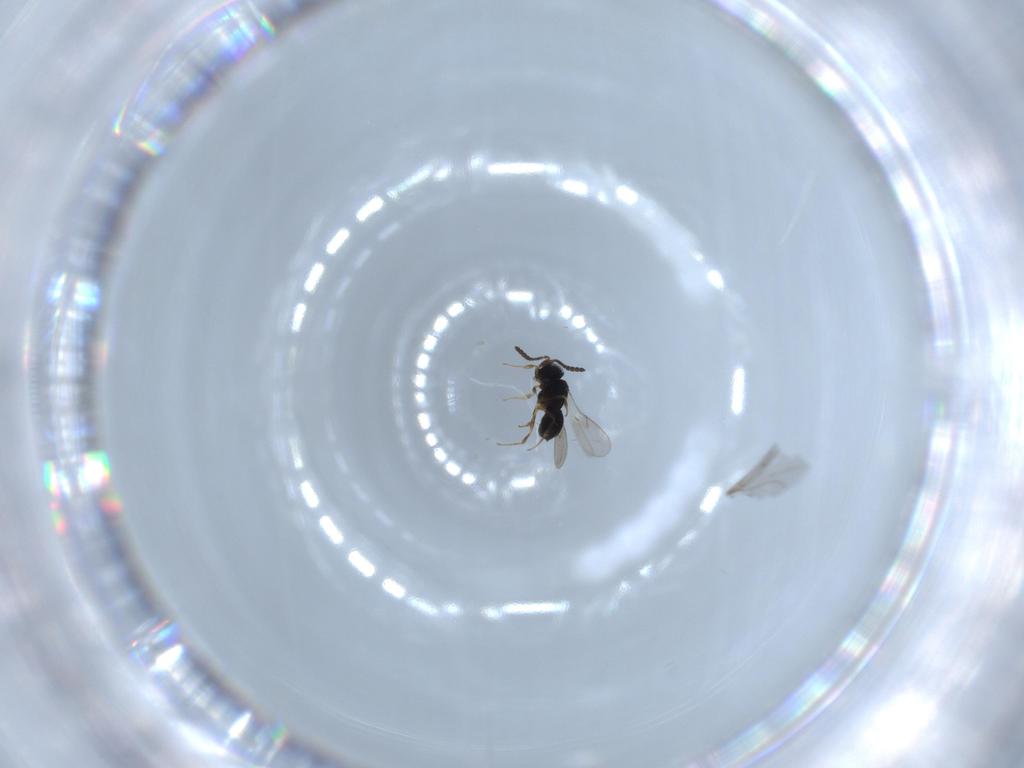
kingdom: Animalia
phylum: Arthropoda
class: Insecta
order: Hymenoptera
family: Scelionidae
